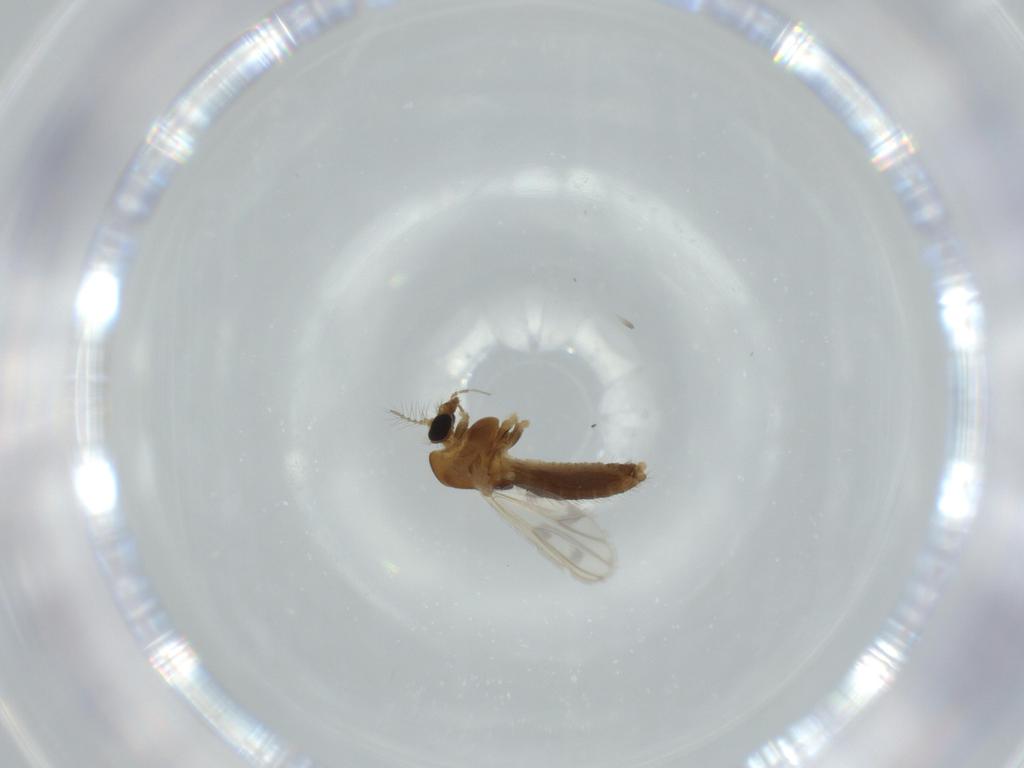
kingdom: Animalia
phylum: Arthropoda
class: Insecta
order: Diptera
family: Chironomidae
